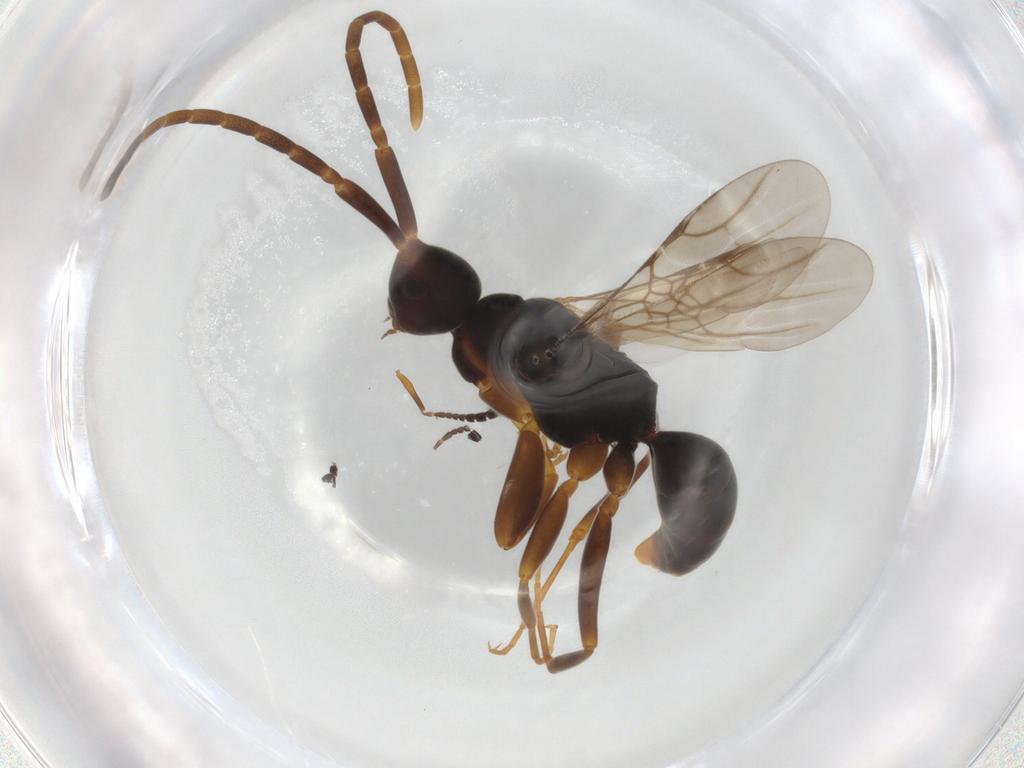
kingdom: Animalia
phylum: Arthropoda
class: Insecta
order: Hymenoptera
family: Embolemidae
